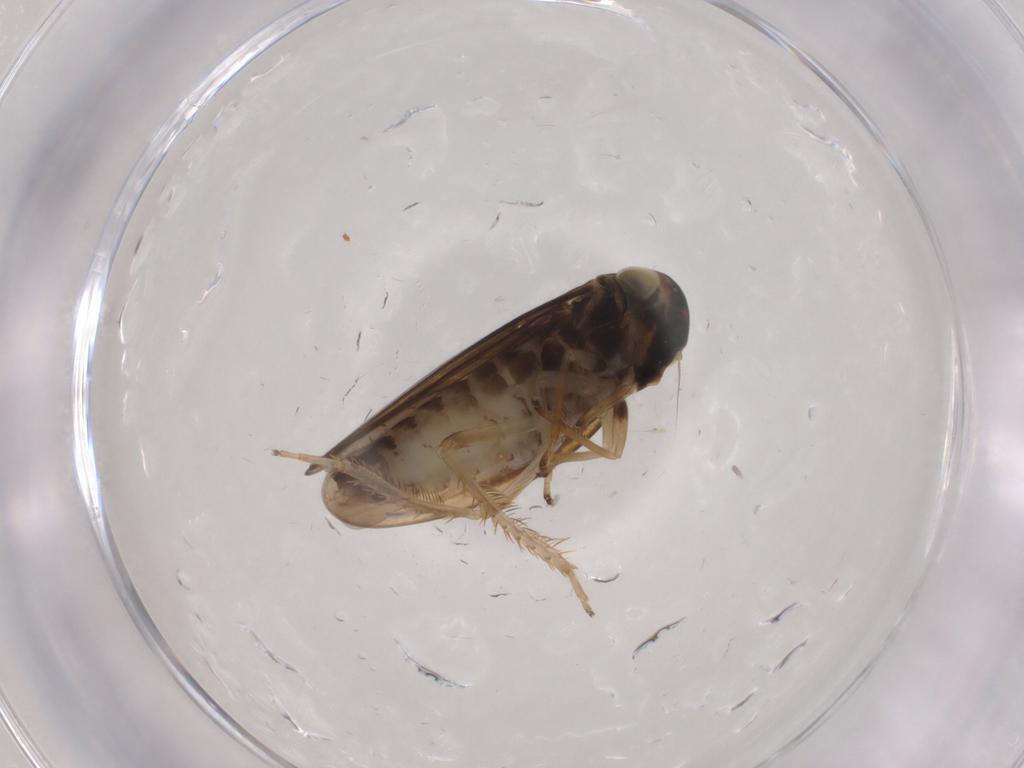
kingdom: Animalia
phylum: Arthropoda
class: Insecta
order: Hemiptera
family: Cicadellidae
